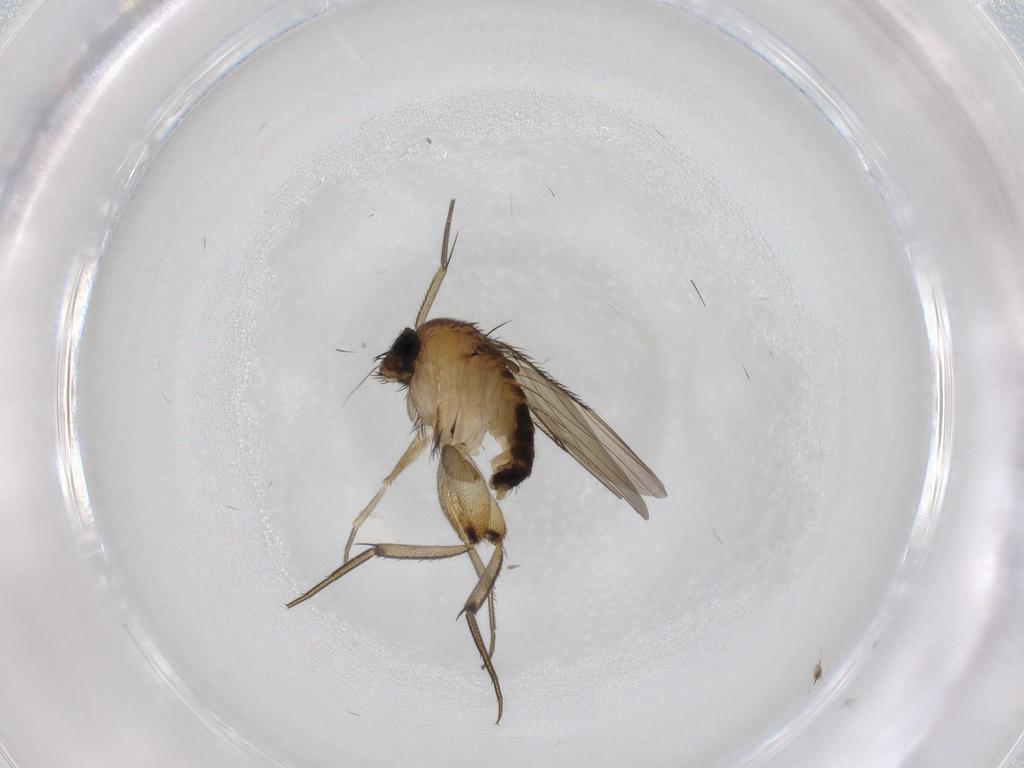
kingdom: Animalia
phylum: Arthropoda
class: Insecta
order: Diptera
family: Phoridae
